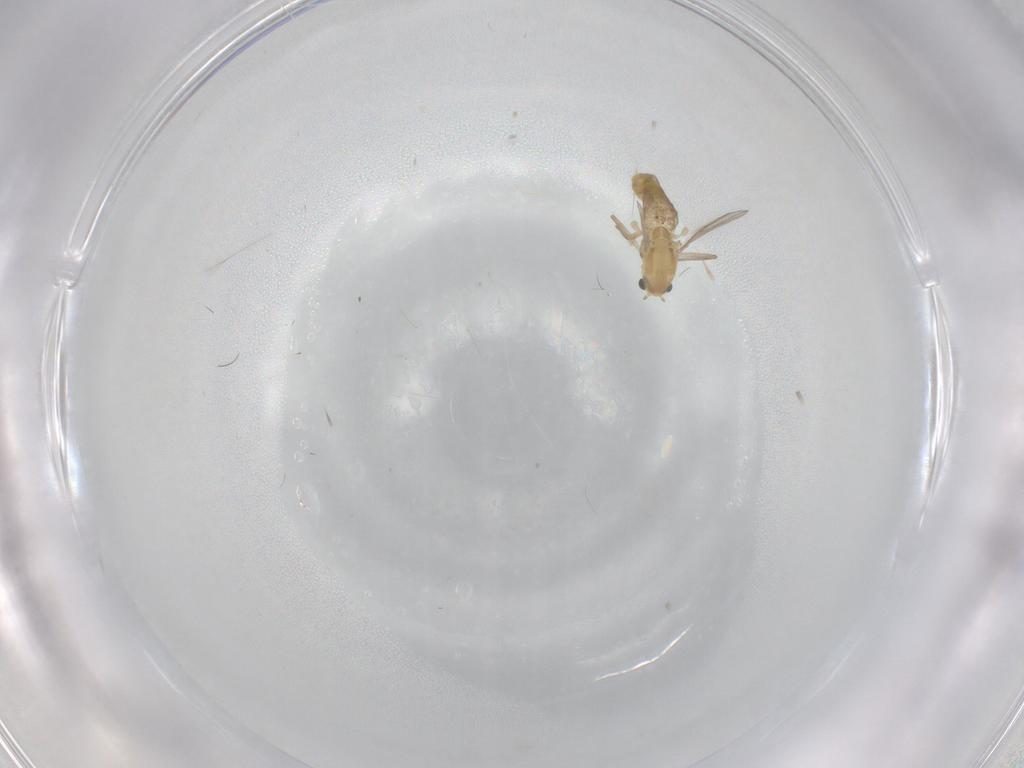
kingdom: Animalia
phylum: Arthropoda
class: Insecta
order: Diptera
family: Chironomidae
